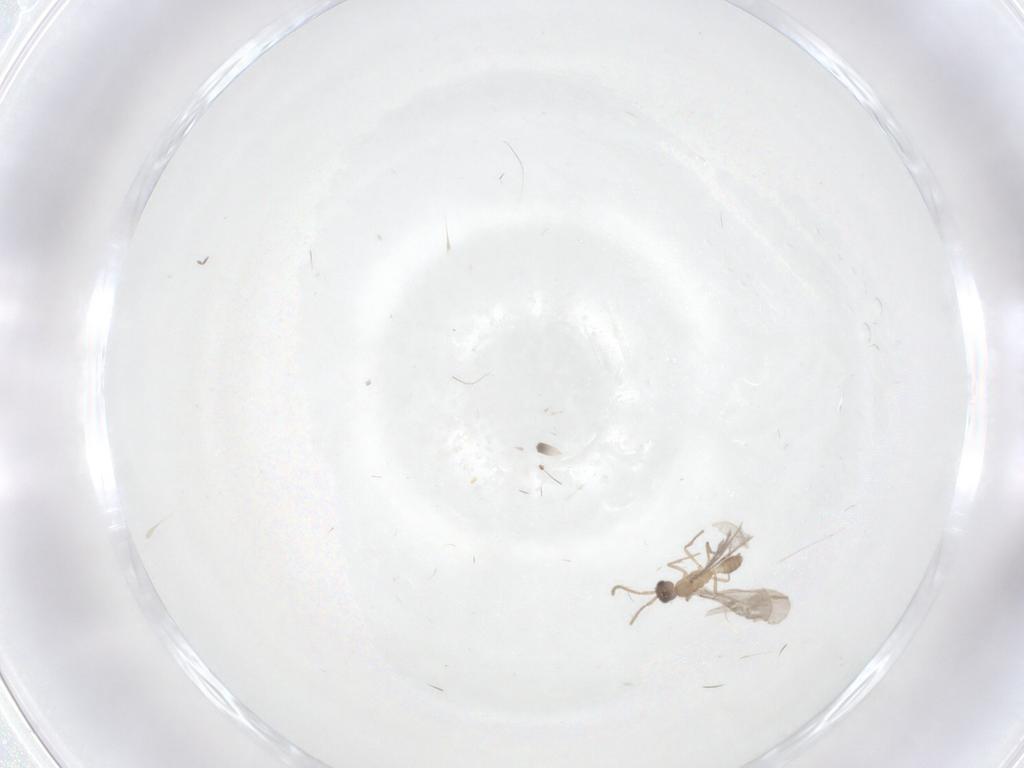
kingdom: Animalia
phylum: Arthropoda
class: Insecta
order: Hymenoptera
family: Formicidae
